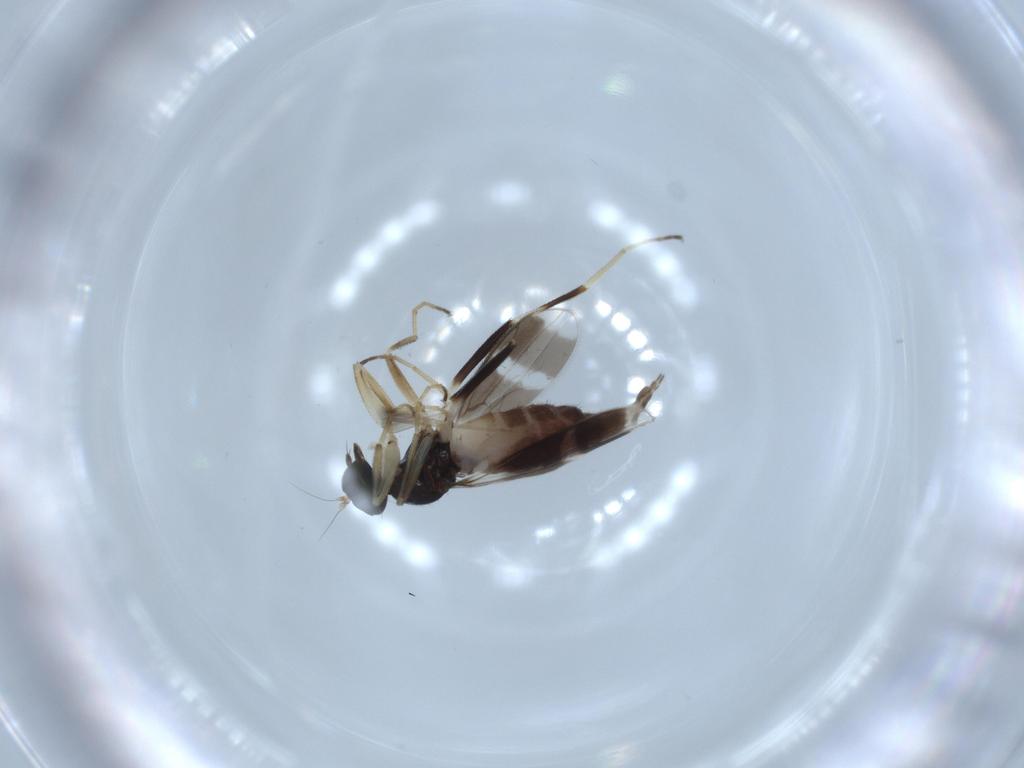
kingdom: Animalia
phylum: Arthropoda
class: Insecta
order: Diptera
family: Hybotidae
